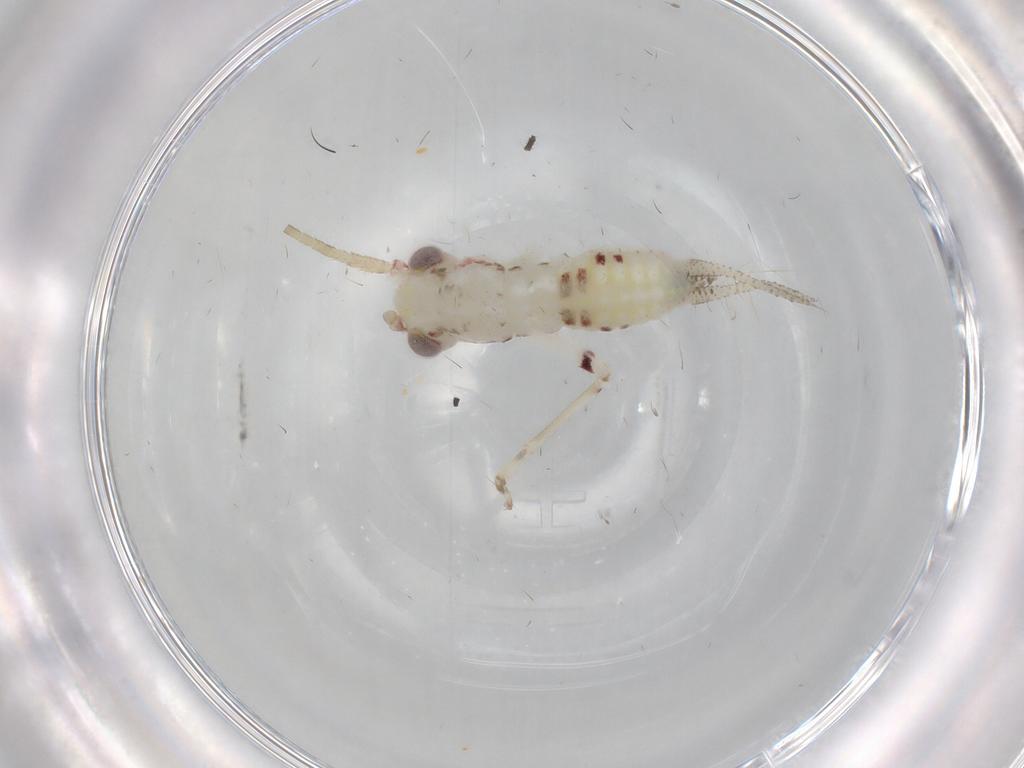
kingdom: Animalia
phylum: Arthropoda
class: Insecta
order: Orthoptera
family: Trigonidiidae
